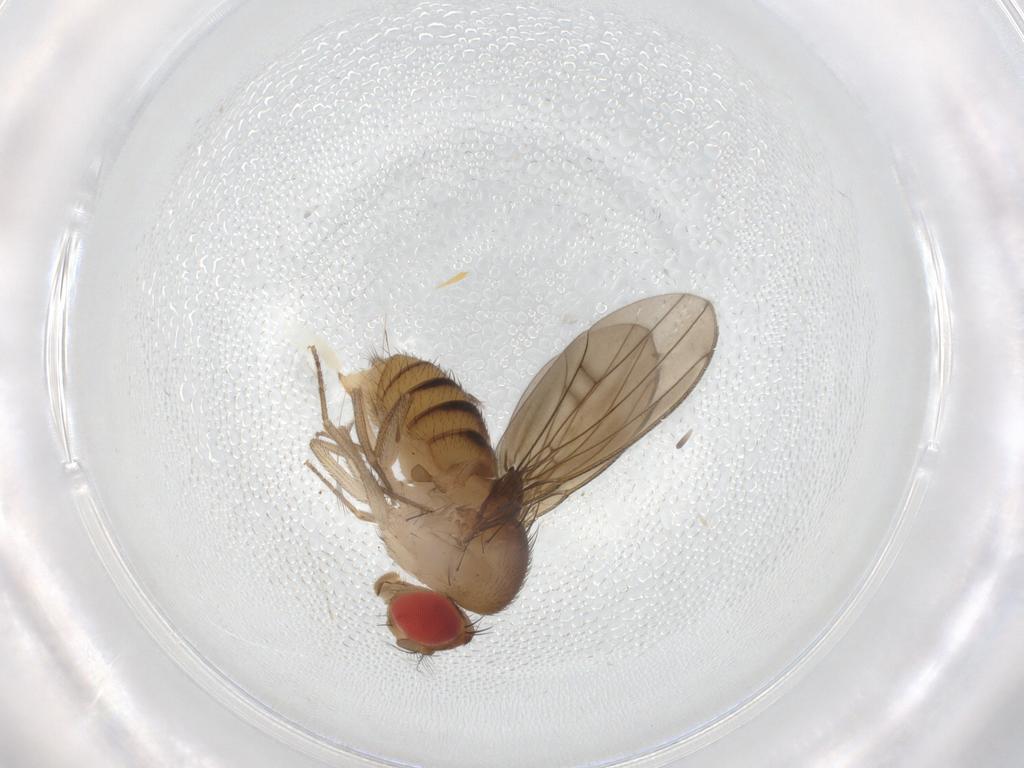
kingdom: Animalia
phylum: Arthropoda
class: Insecta
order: Diptera
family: Drosophilidae
